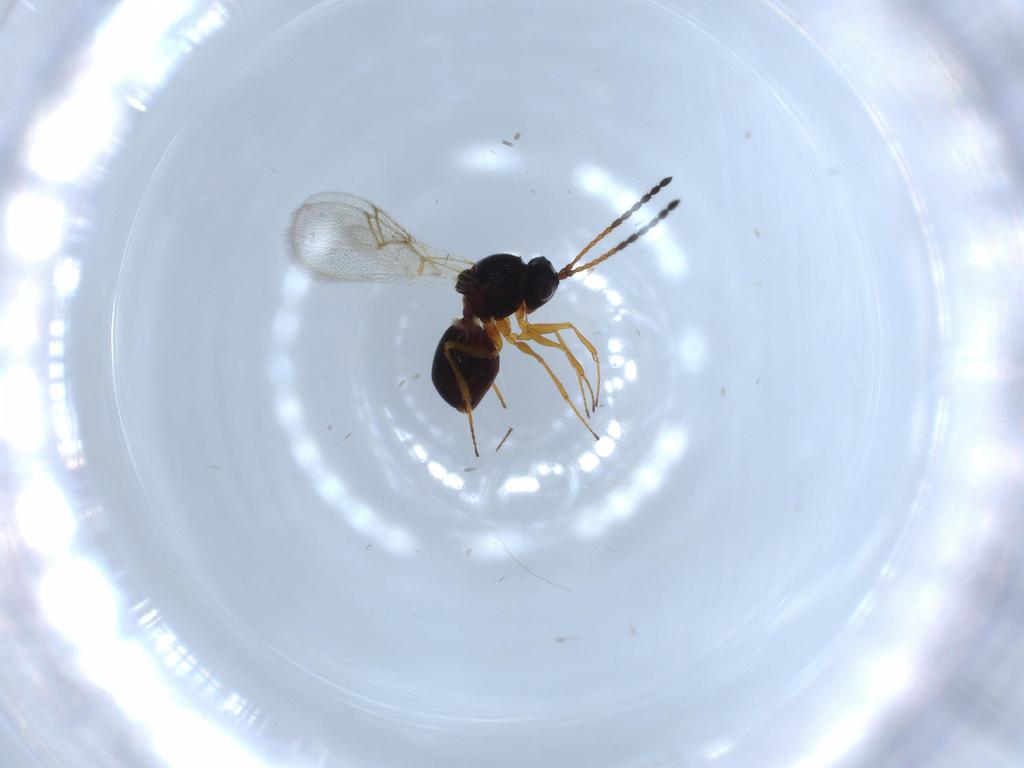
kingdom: Animalia
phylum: Arthropoda
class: Insecta
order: Hymenoptera
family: Figitidae
